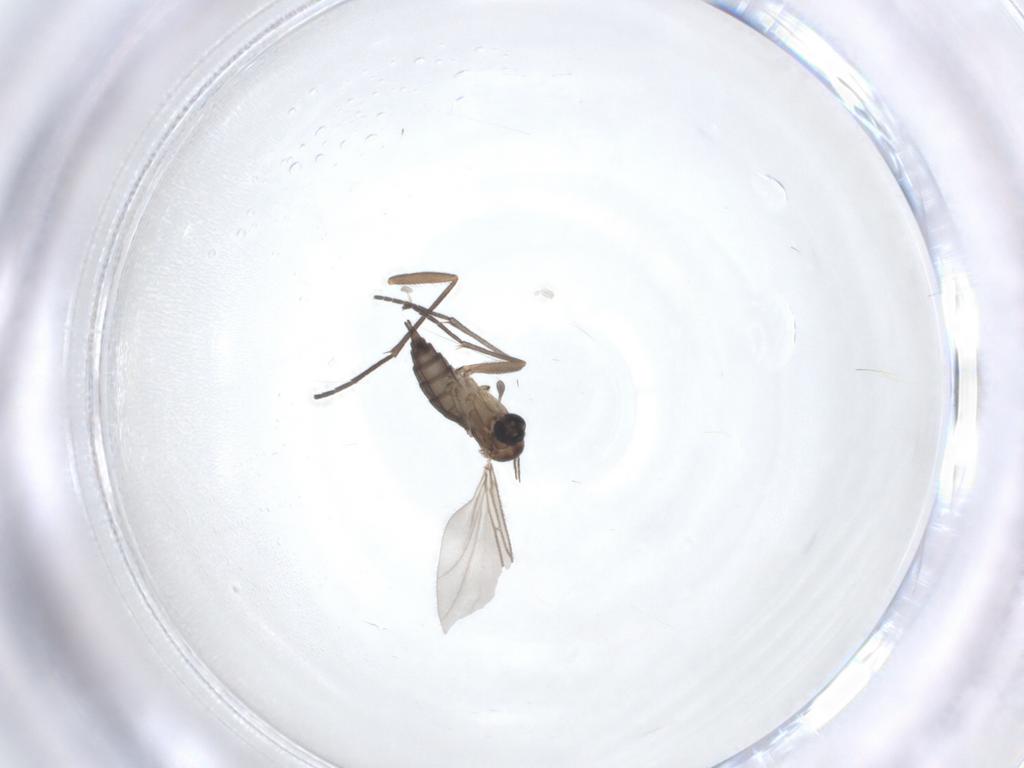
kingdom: Animalia
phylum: Arthropoda
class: Insecta
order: Diptera
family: Sciaridae
